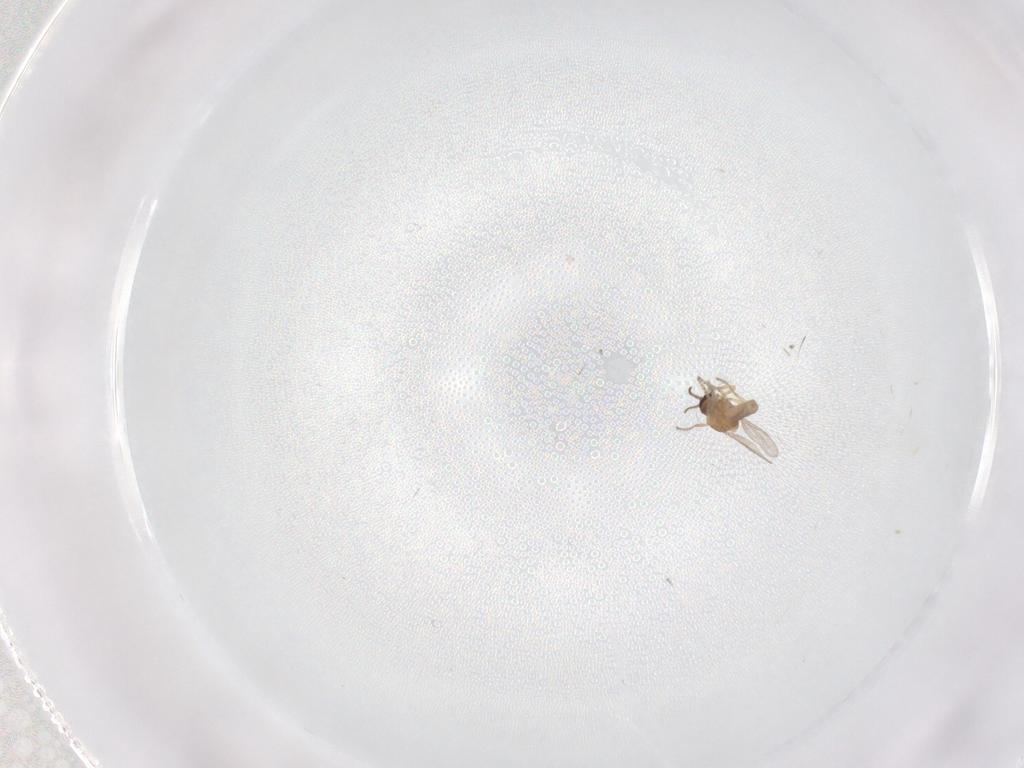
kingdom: Animalia
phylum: Arthropoda
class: Insecta
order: Diptera
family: Ceratopogonidae
